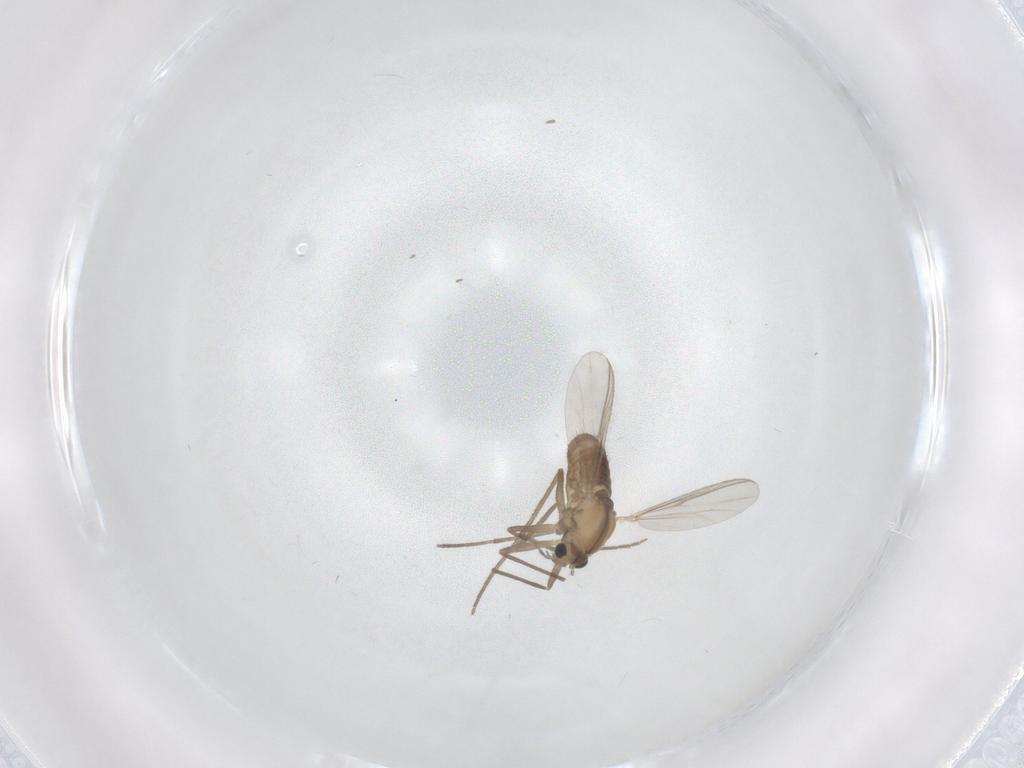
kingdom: Animalia
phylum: Arthropoda
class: Insecta
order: Diptera
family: Chironomidae
